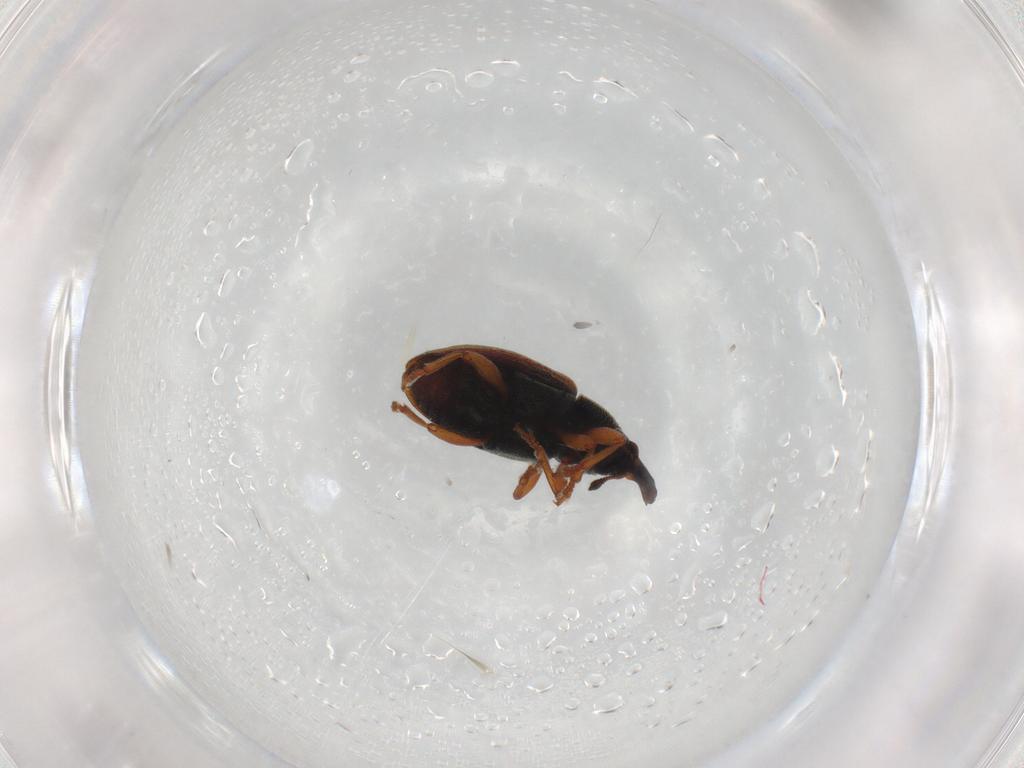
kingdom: Animalia
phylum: Arthropoda
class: Insecta
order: Coleoptera
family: Curculionidae
